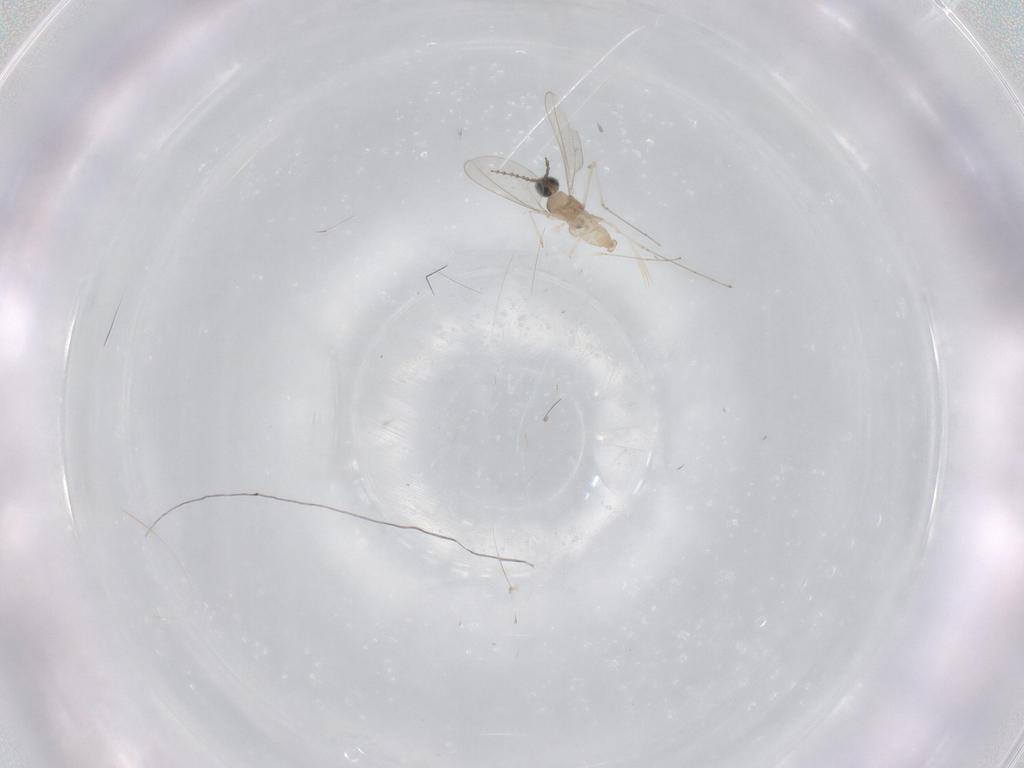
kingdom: Animalia
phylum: Arthropoda
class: Insecta
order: Diptera
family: Phoridae
